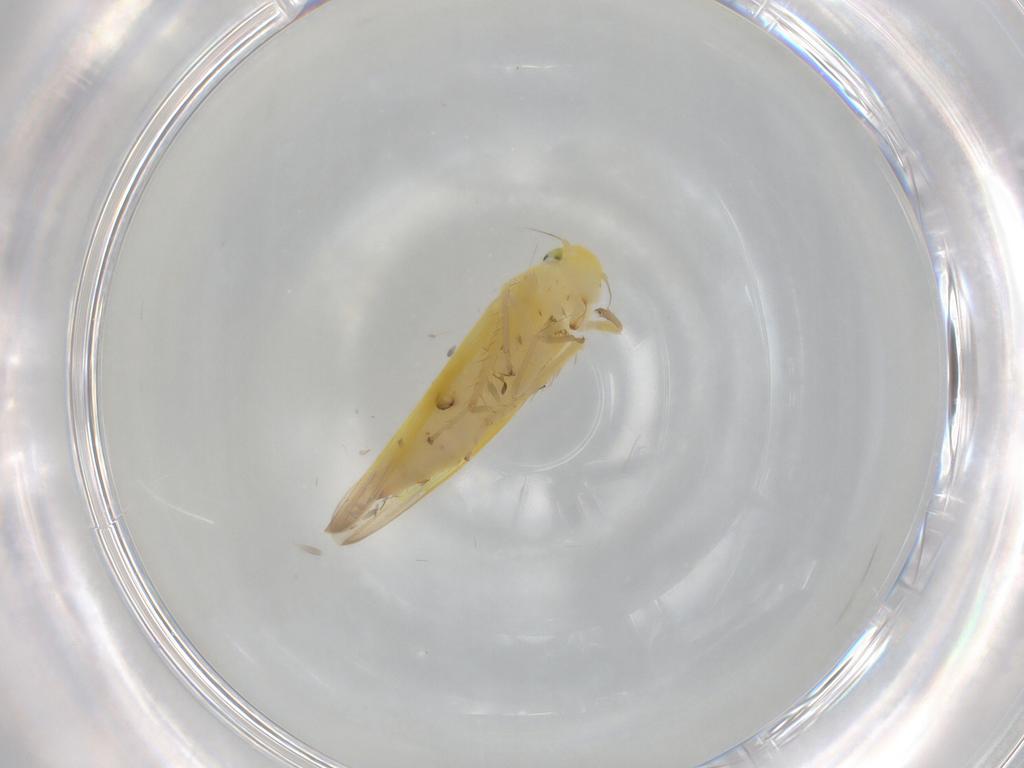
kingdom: Animalia
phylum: Arthropoda
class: Insecta
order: Hemiptera
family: Cicadellidae
